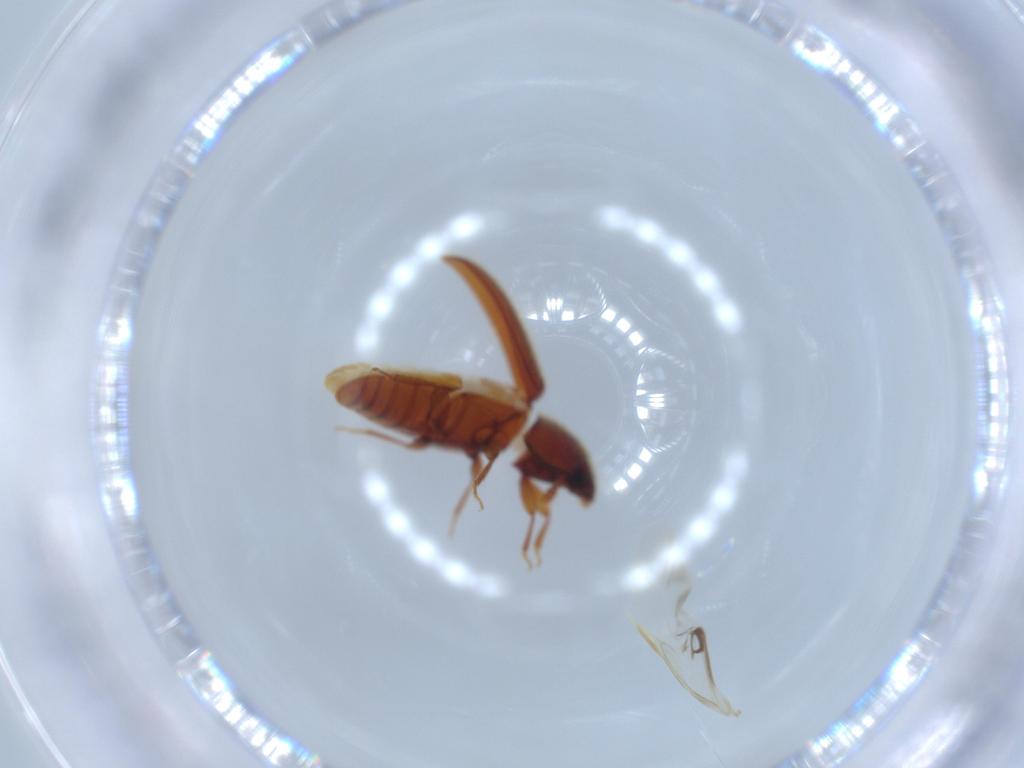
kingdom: Animalia
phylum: Arthropoda
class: Insecta
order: Coleoptera
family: Biphyllidae
